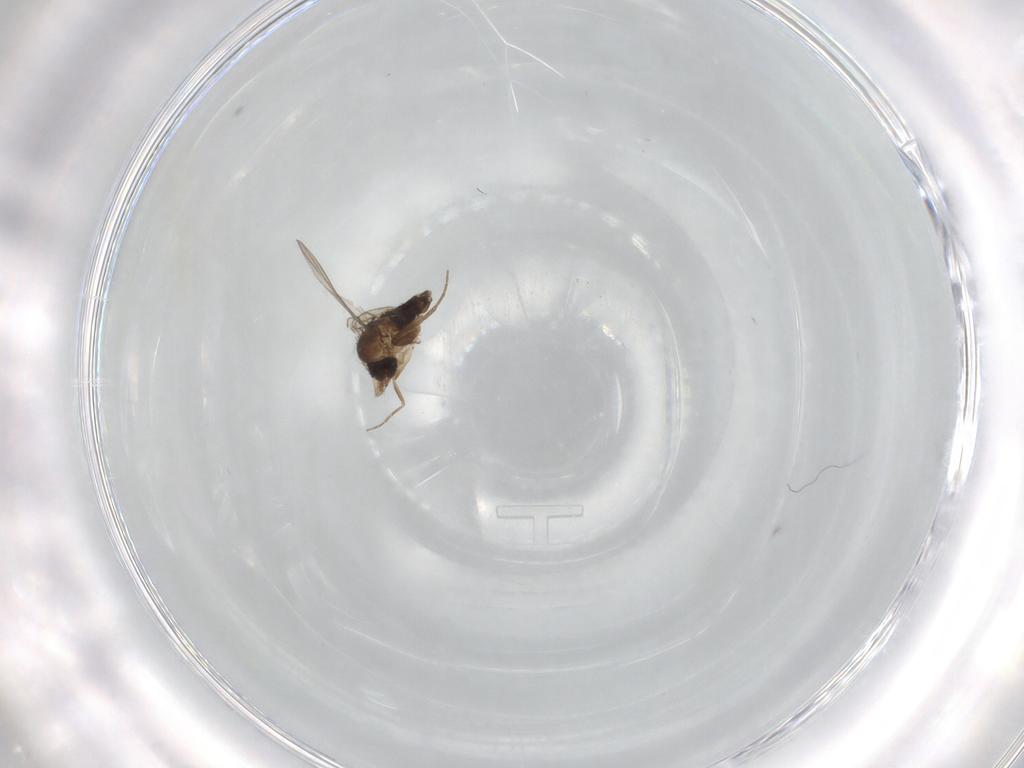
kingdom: Animalia
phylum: Arthropoda
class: Insecta
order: Diptera
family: Phoridae
